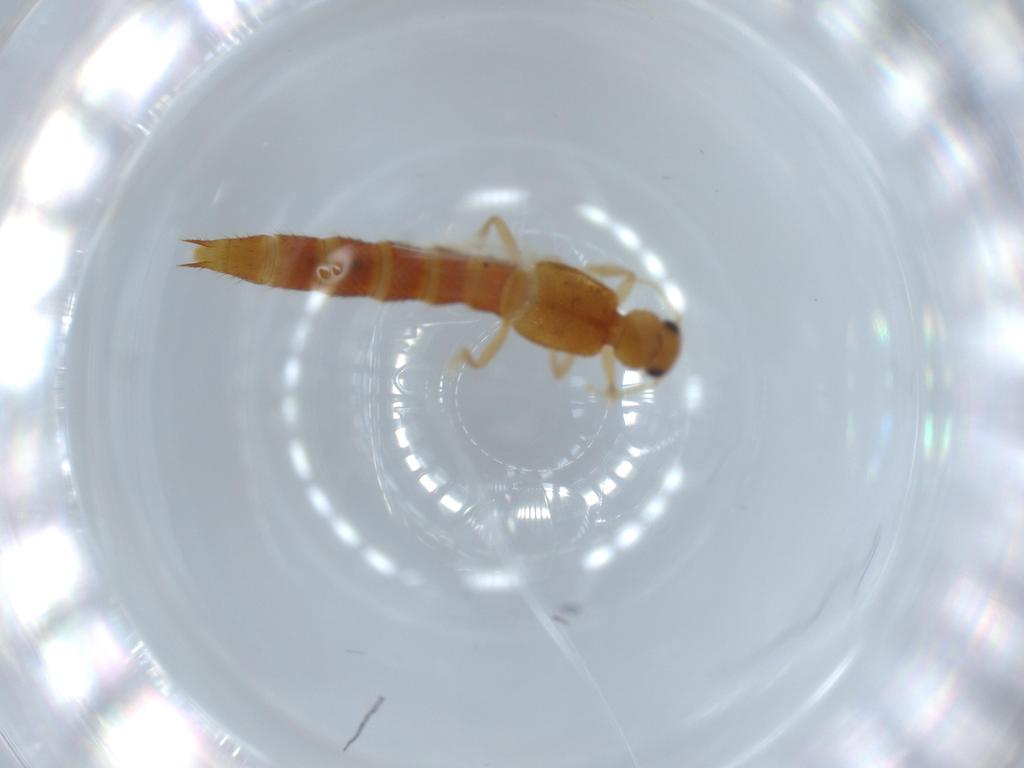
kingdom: Animalia
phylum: Arthropoda
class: Insecta
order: Coleoptera
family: Staphylinidae
